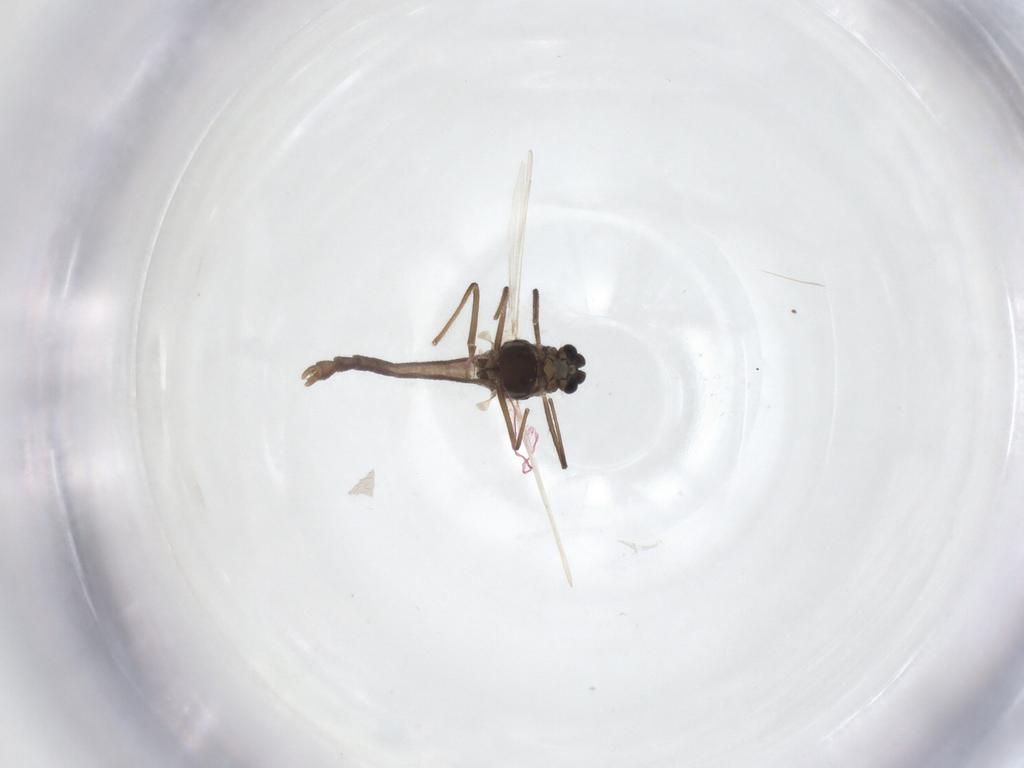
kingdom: Animalia
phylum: Arthropoda
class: Insecta
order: Diptera
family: Chironomidae
